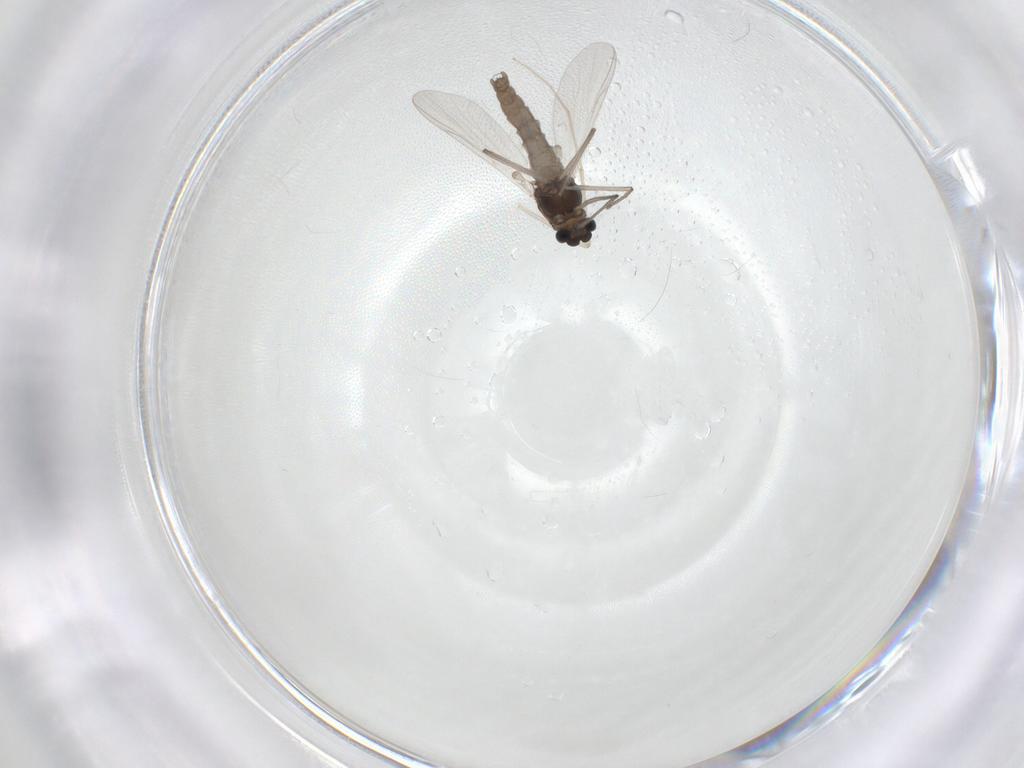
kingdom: Animalia
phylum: Arthropoda
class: Insecta
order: Diptera
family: Chironomidae
